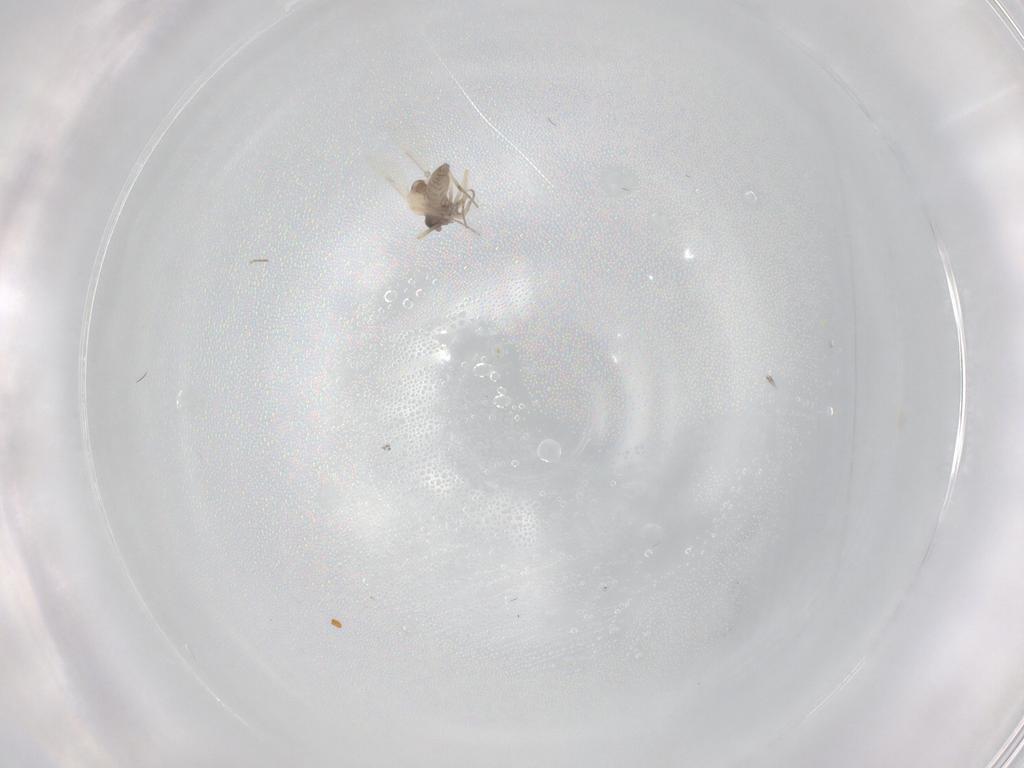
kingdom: Animalia
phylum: Arthropoda
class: Insecta
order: Diptera
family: Ceratopogonidae
